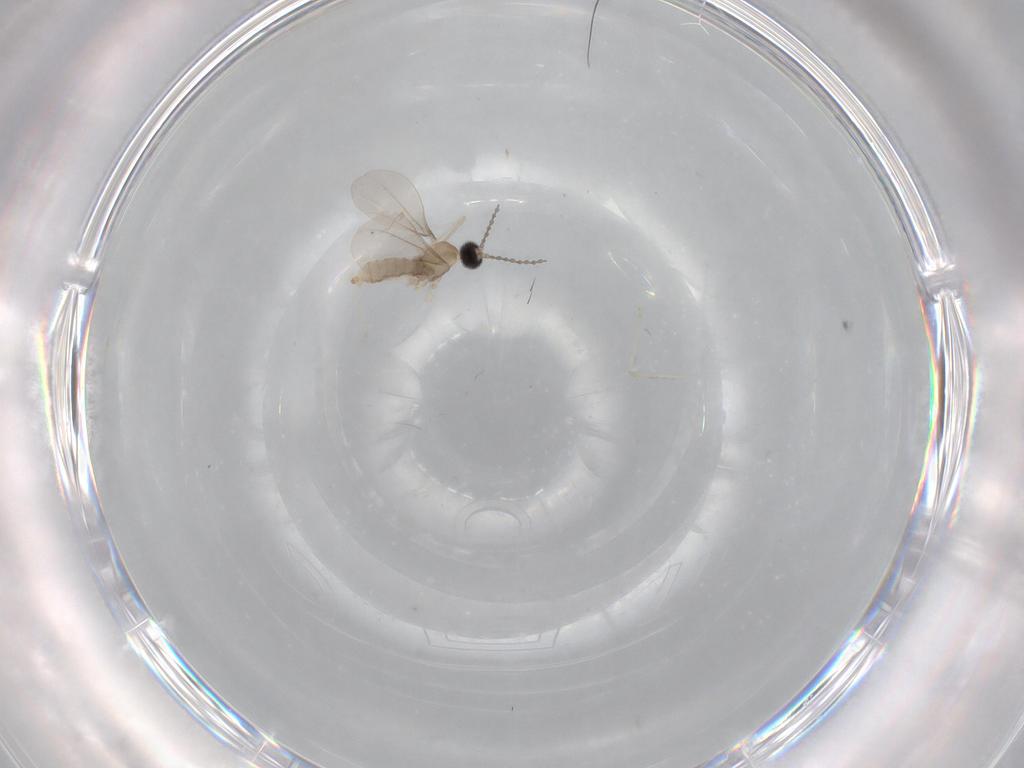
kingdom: Animalia
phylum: Arthropoda
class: Insecta
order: Diptera
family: Cecidomyiidae
